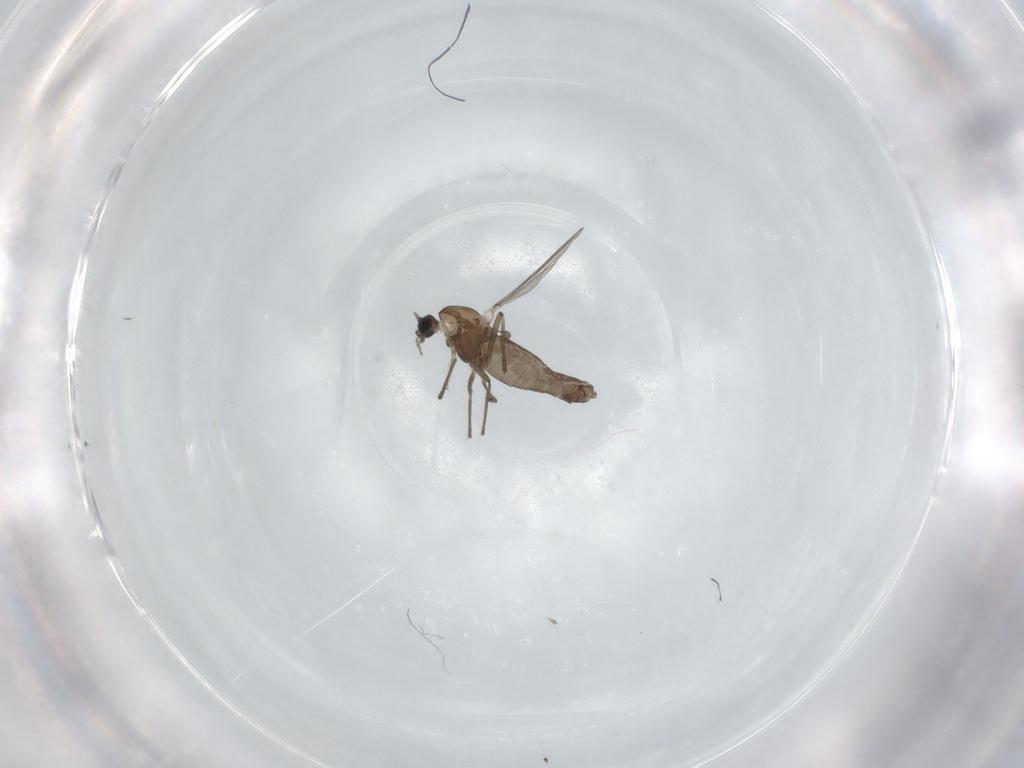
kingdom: Animalia
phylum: Arthropoda
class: Insecta
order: Diptera
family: Chironomidae
